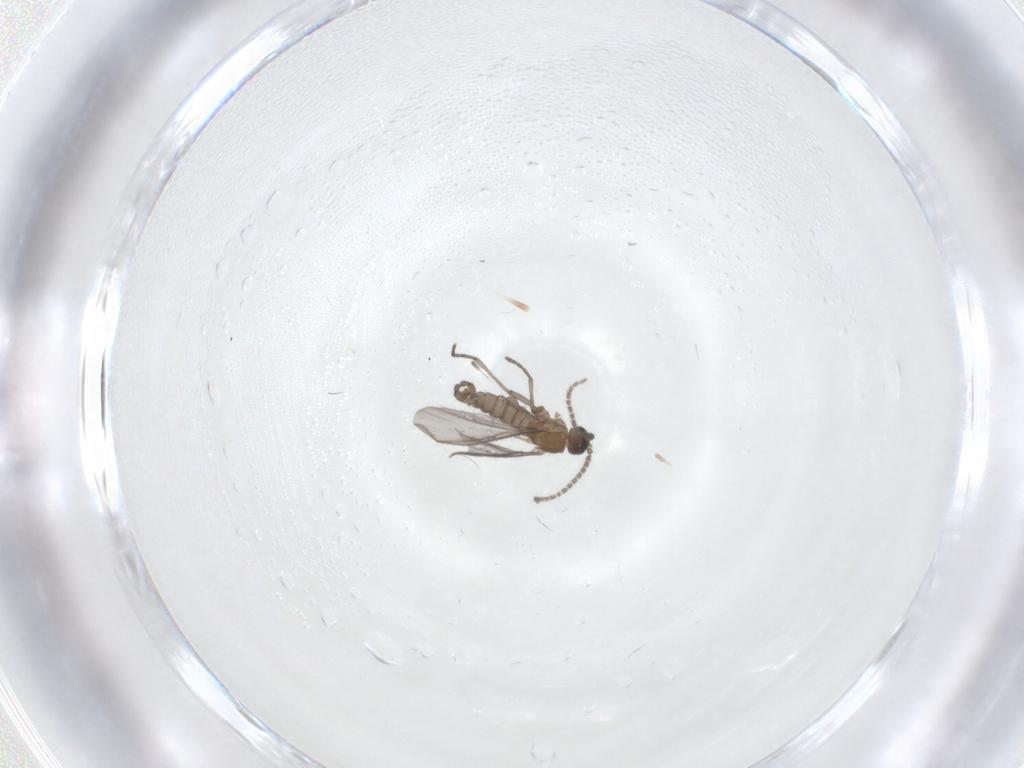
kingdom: Animalia
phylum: Arthropoda
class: Insecta
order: Diptera
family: Sciaridae
